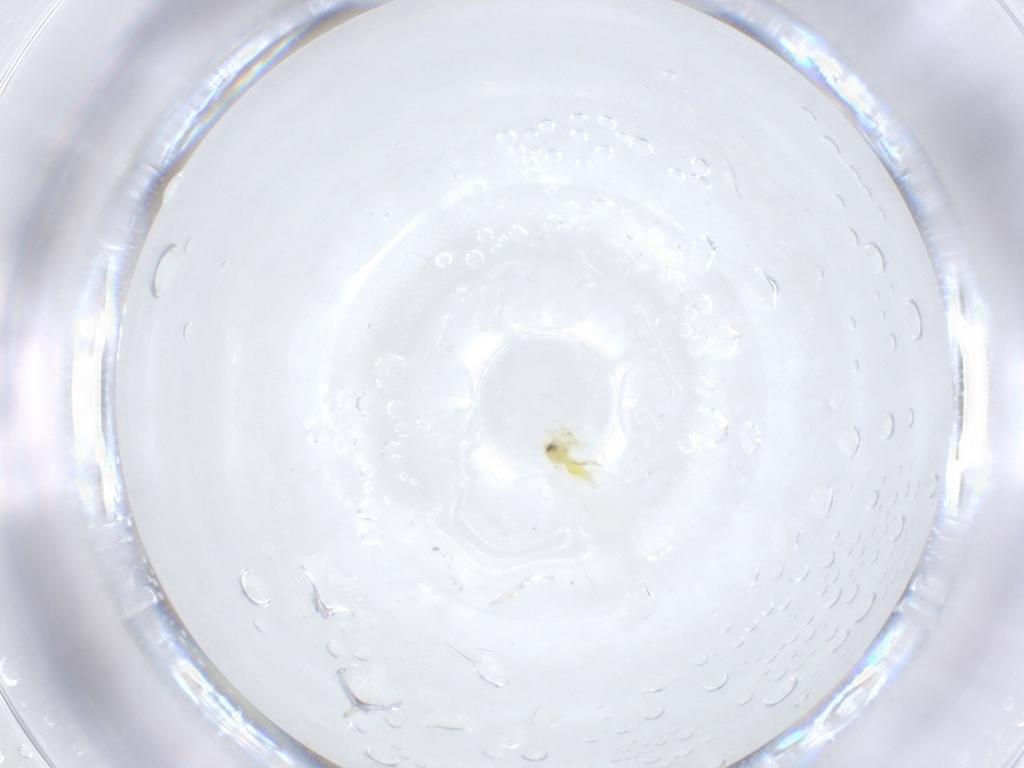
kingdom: Animalia
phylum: Arthropoda
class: Insecta
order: Hemiptera
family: Aleyrodidae
